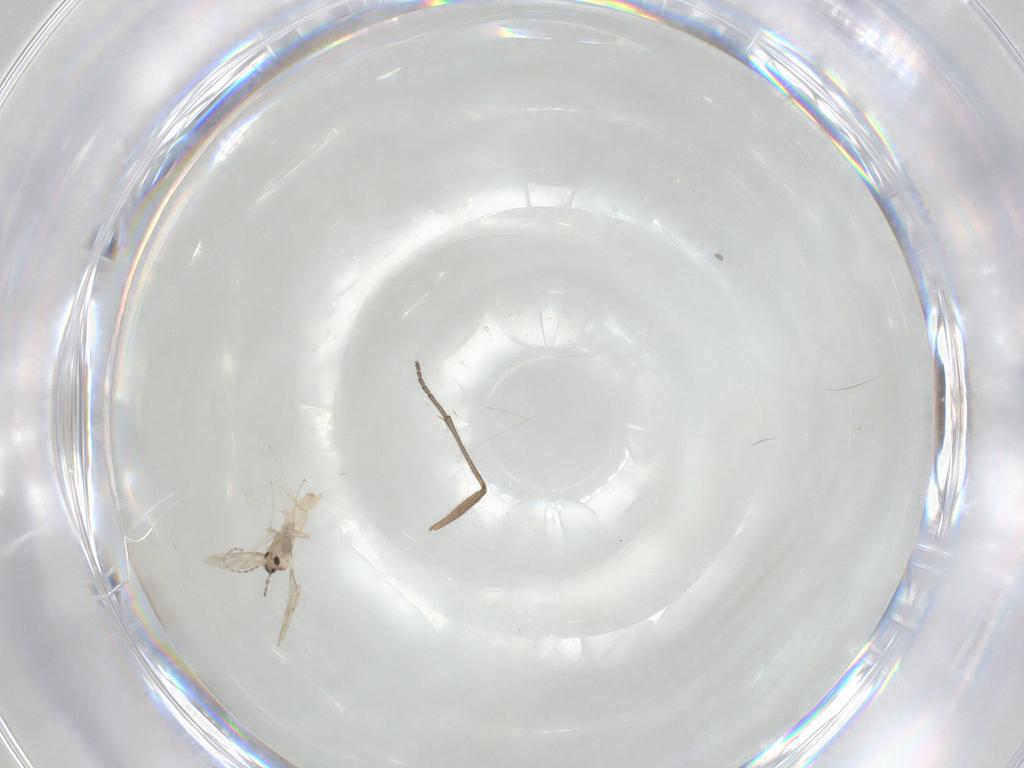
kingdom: Animalia
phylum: Arthropoda
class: Insecta
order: Diptera
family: Cecidomyiidae
